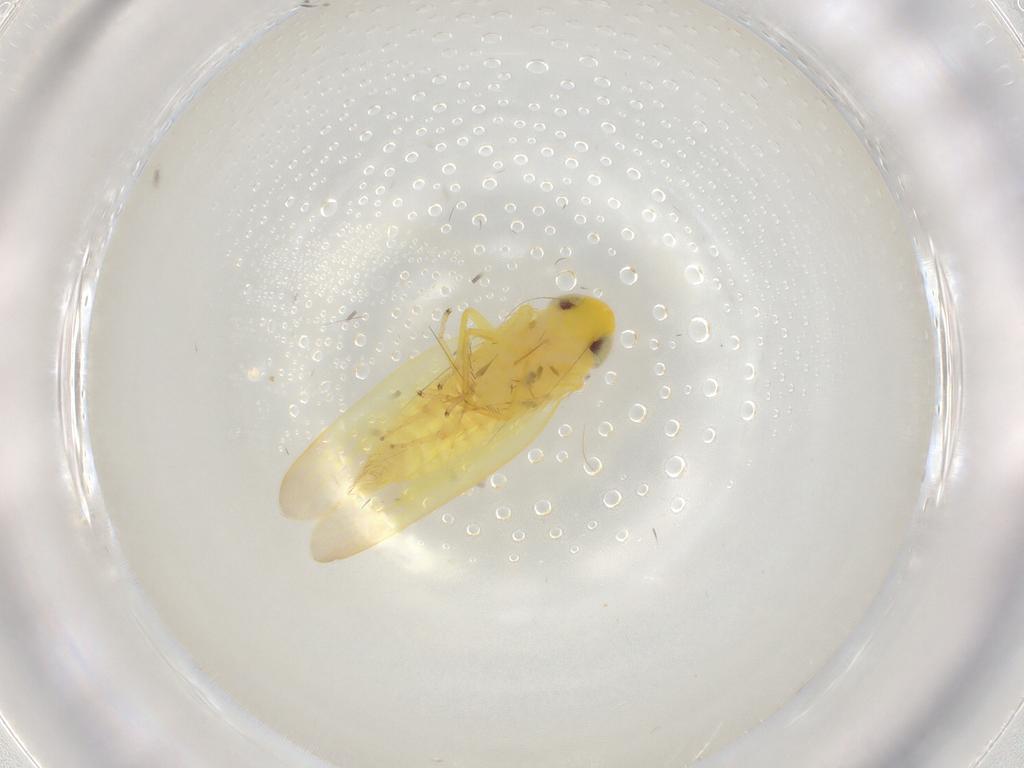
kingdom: Animalia
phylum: Arthropoda
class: Insecta
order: Hemiptera
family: Cicadellidae
